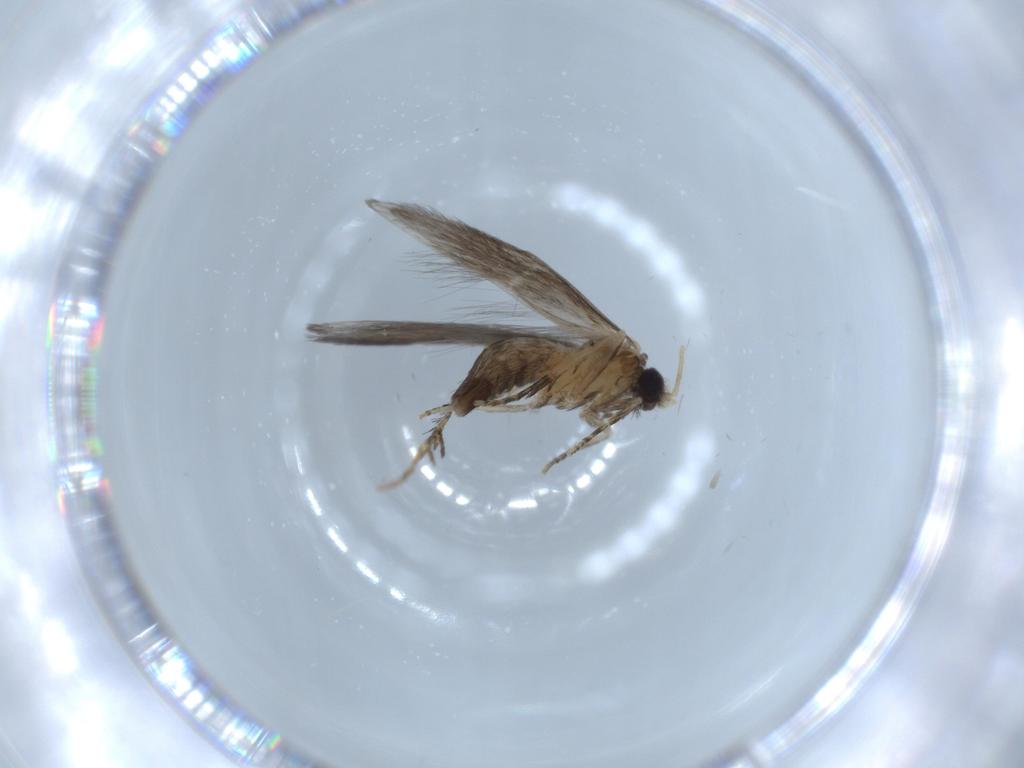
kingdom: Animalia
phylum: Arthropoda
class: Insecta
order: Trichoptera
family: Hydroptilidae
